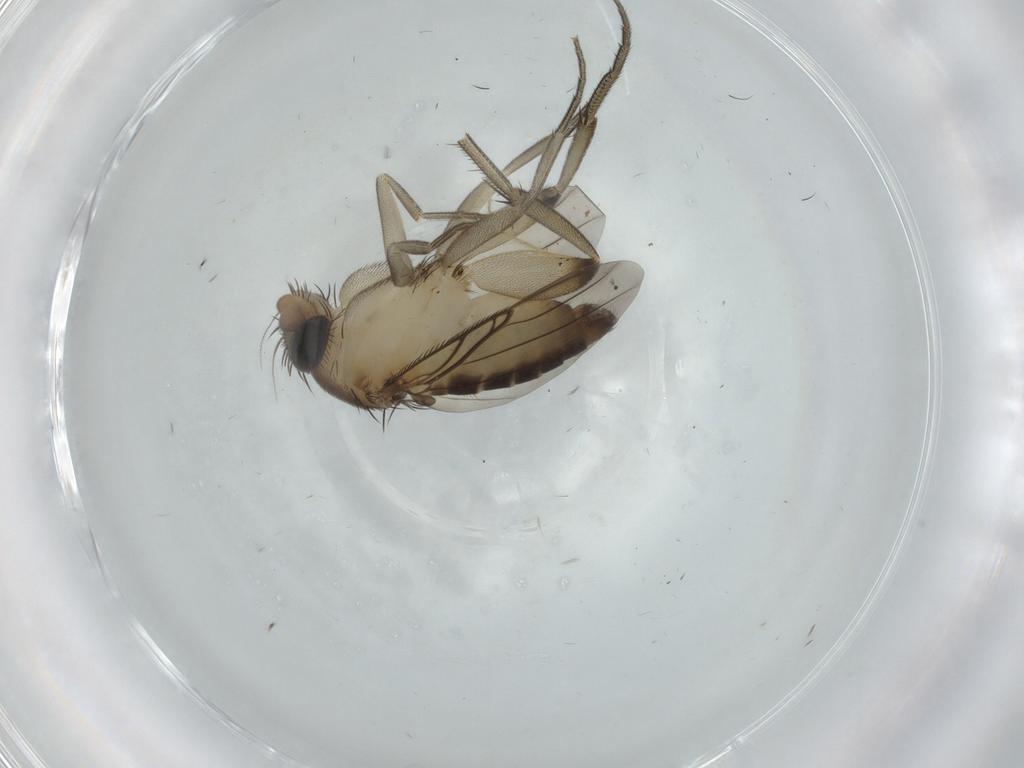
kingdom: Animalia
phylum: Arthropoda
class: Insecta
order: Diptera
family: Phoridae
